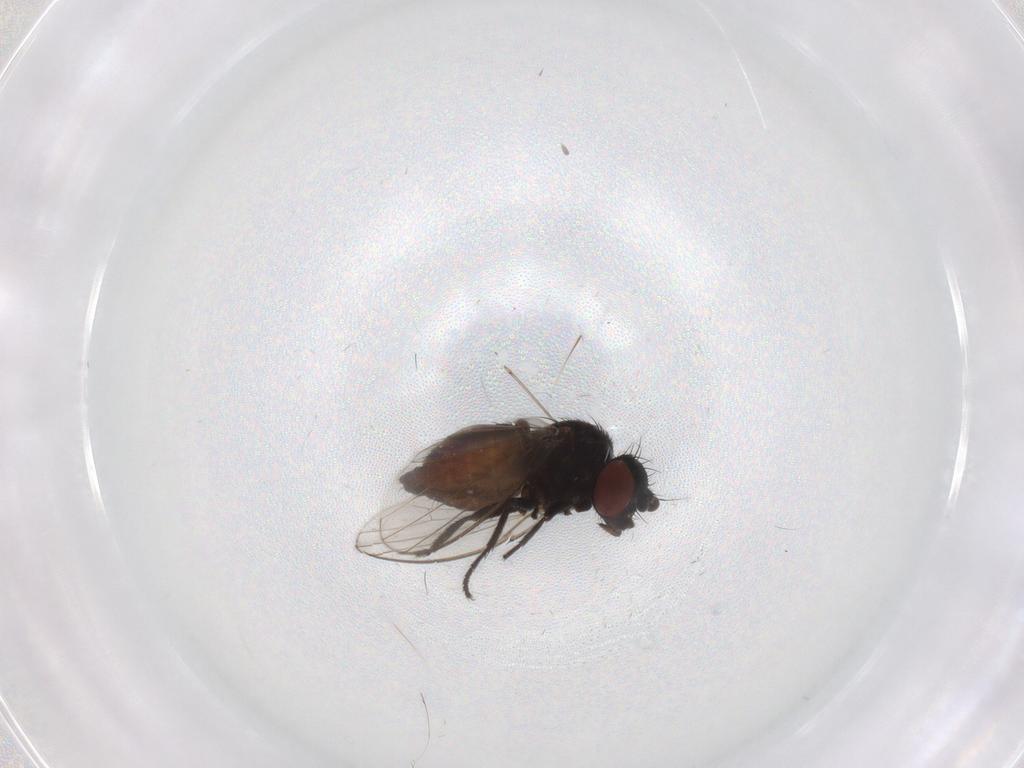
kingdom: Animalia
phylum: Arthropoda
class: Insecta
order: Diptera
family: Milichiidae
